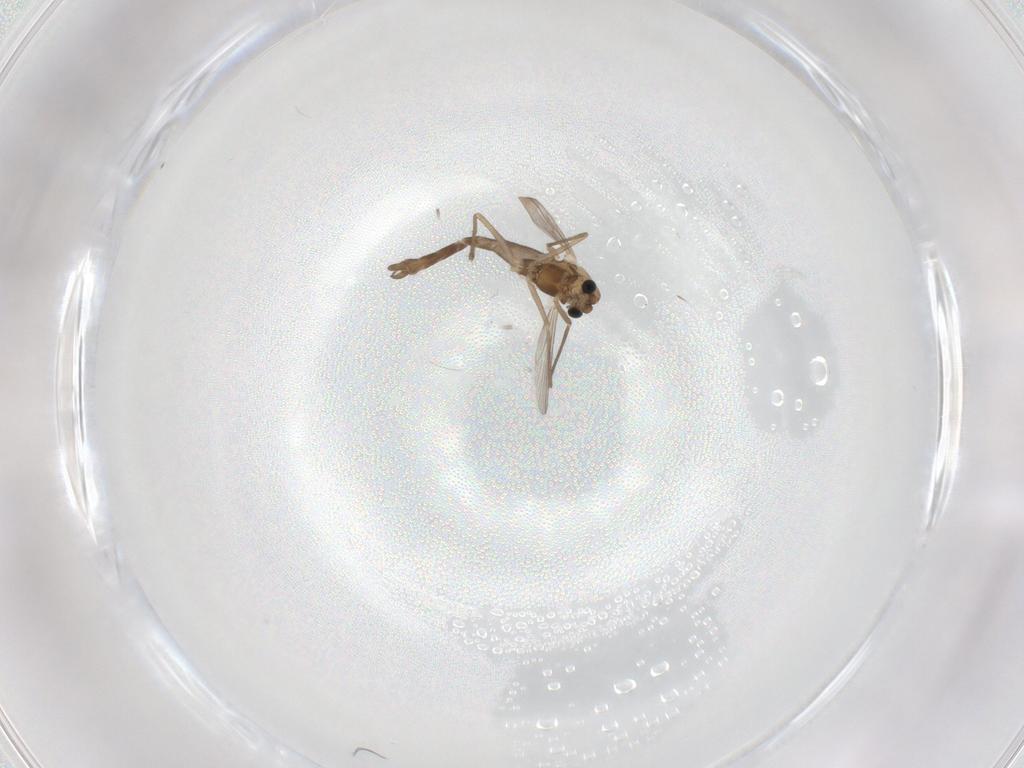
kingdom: Animalia
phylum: Arthropoda
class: Insecta
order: Diptera
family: Chironomidae
